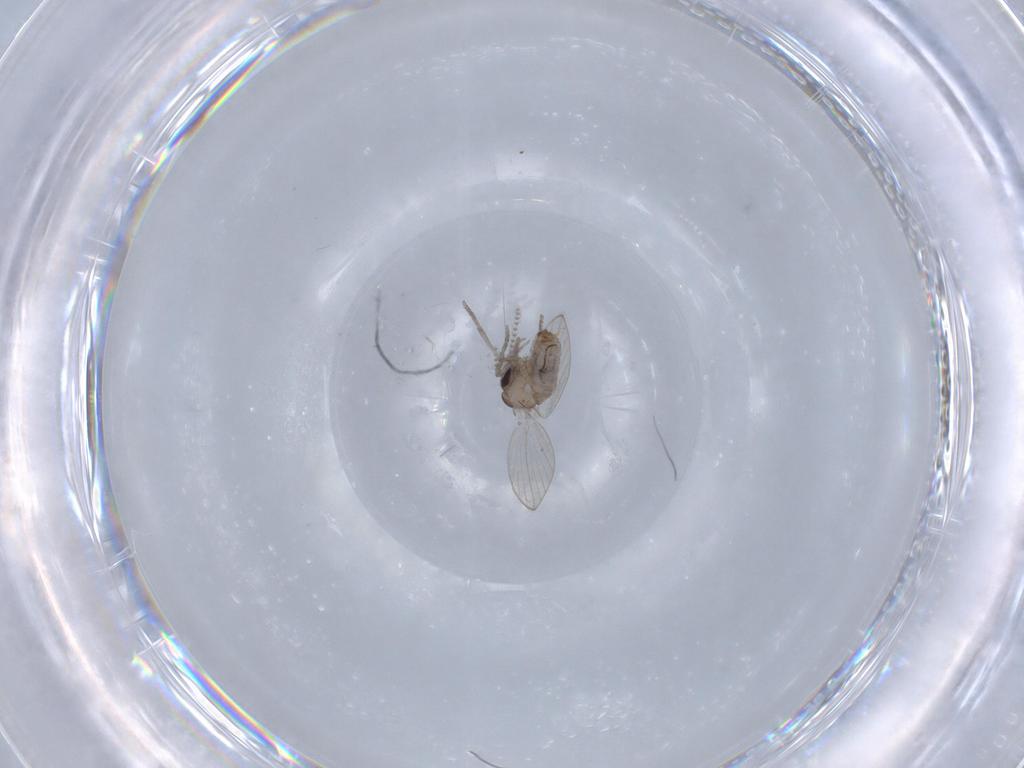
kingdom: Animalia
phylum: Arthropoda
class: Insecta
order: Diptera
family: Psychodidae
